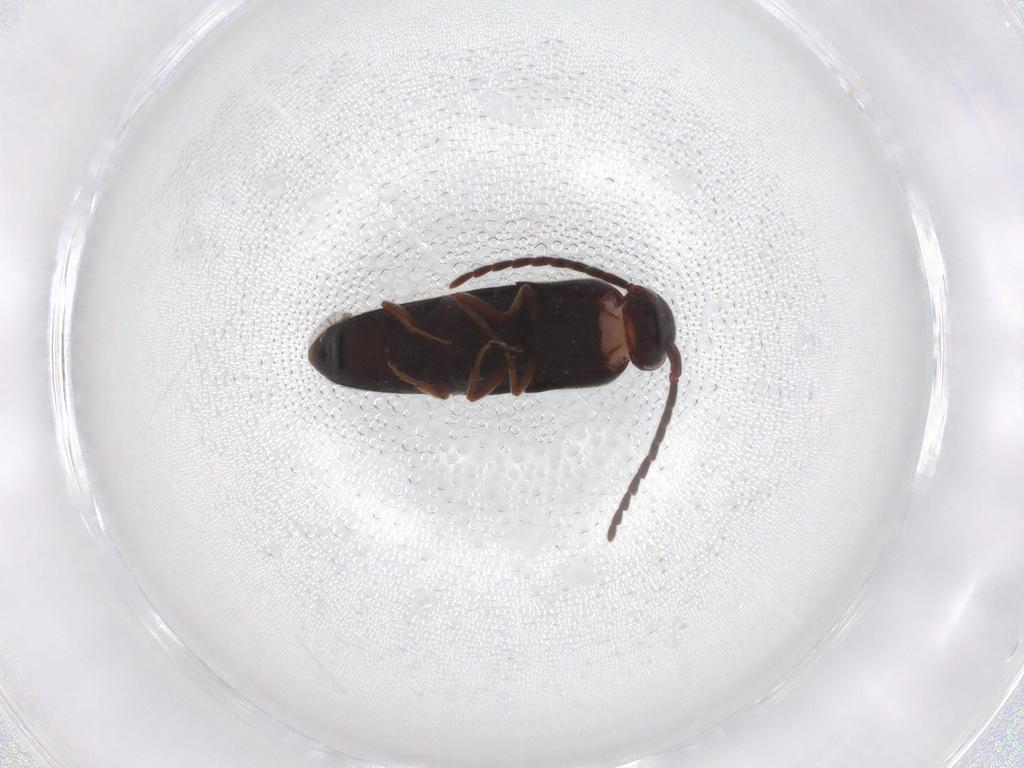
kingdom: Animalia
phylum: Arthropoda
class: Insecta
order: Coleoptera
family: Eucnemidae
